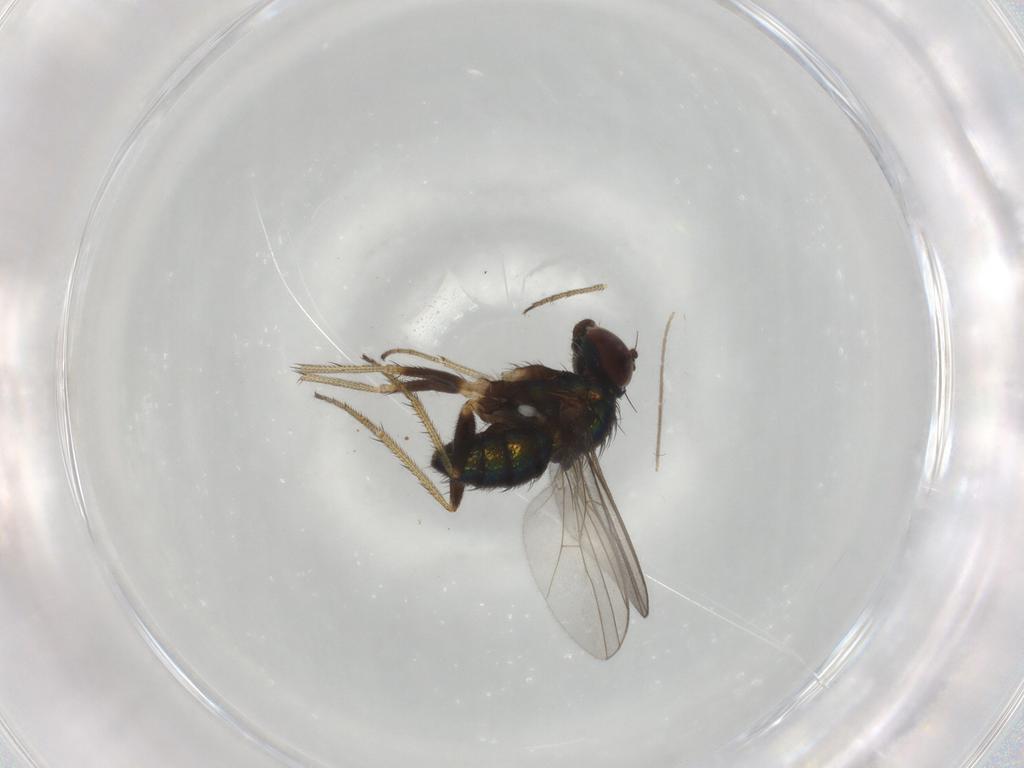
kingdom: Animalia
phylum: Arthropoda
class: Insecta
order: Diptera
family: Chironomidae
